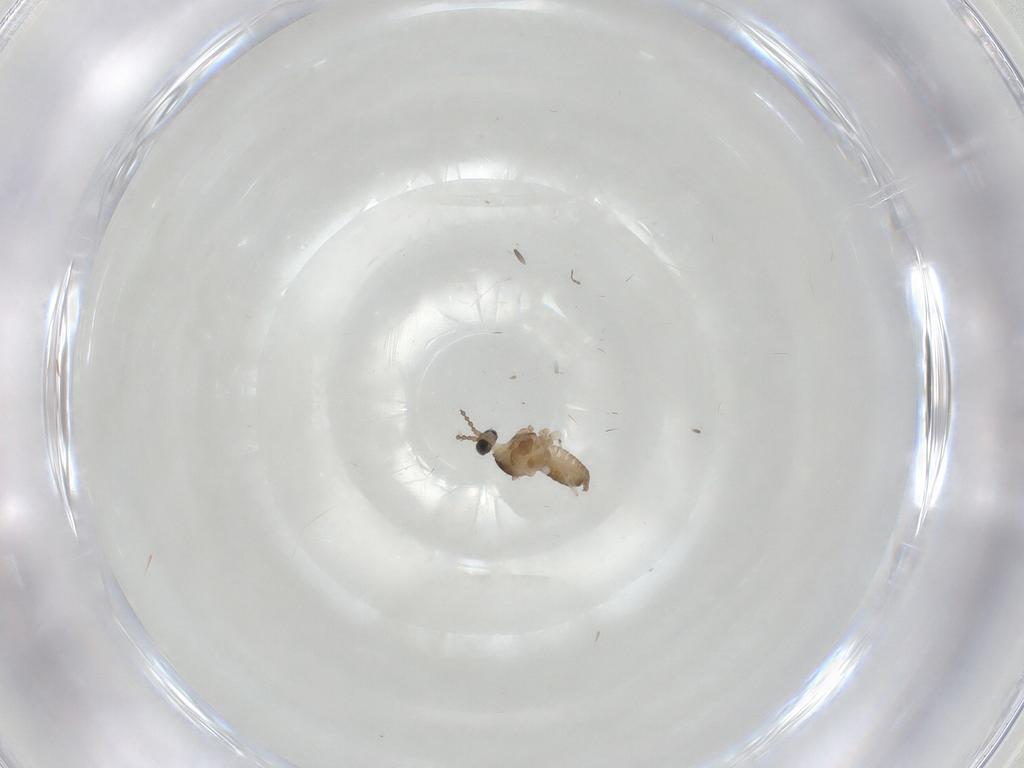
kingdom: Animalia
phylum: Arthropoda
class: Insecta
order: Diptera
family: Cecidomyiidae
